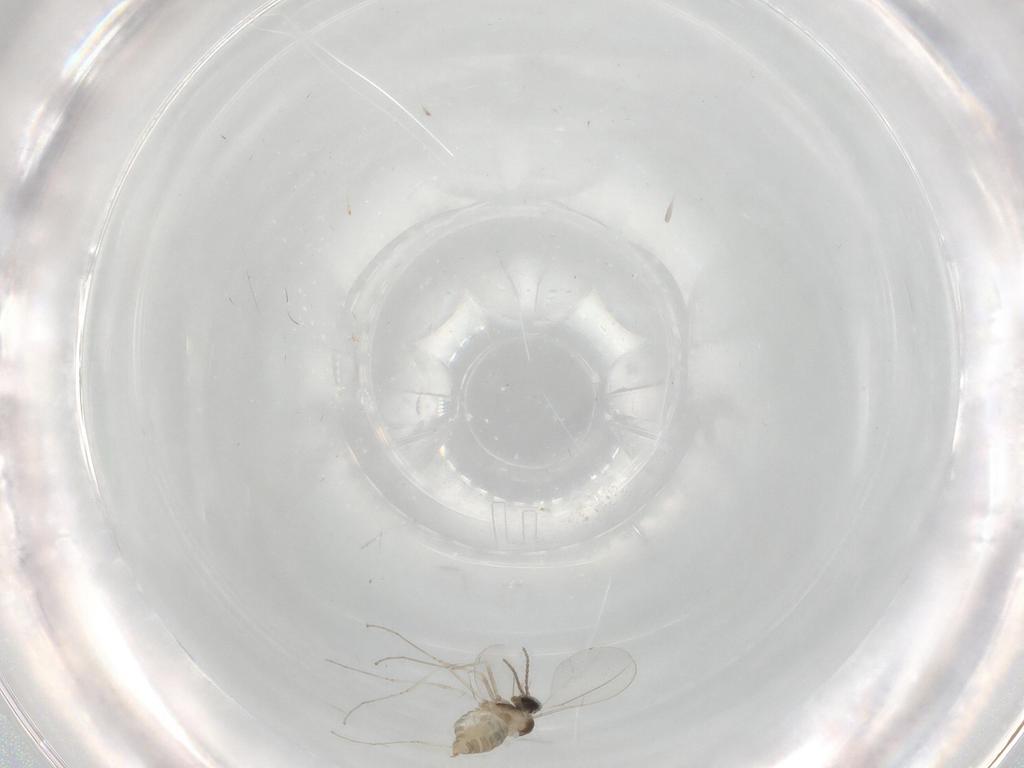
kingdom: Animalia
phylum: Arthropoda
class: Insecta
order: Diptera
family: Cecidomyiidae
